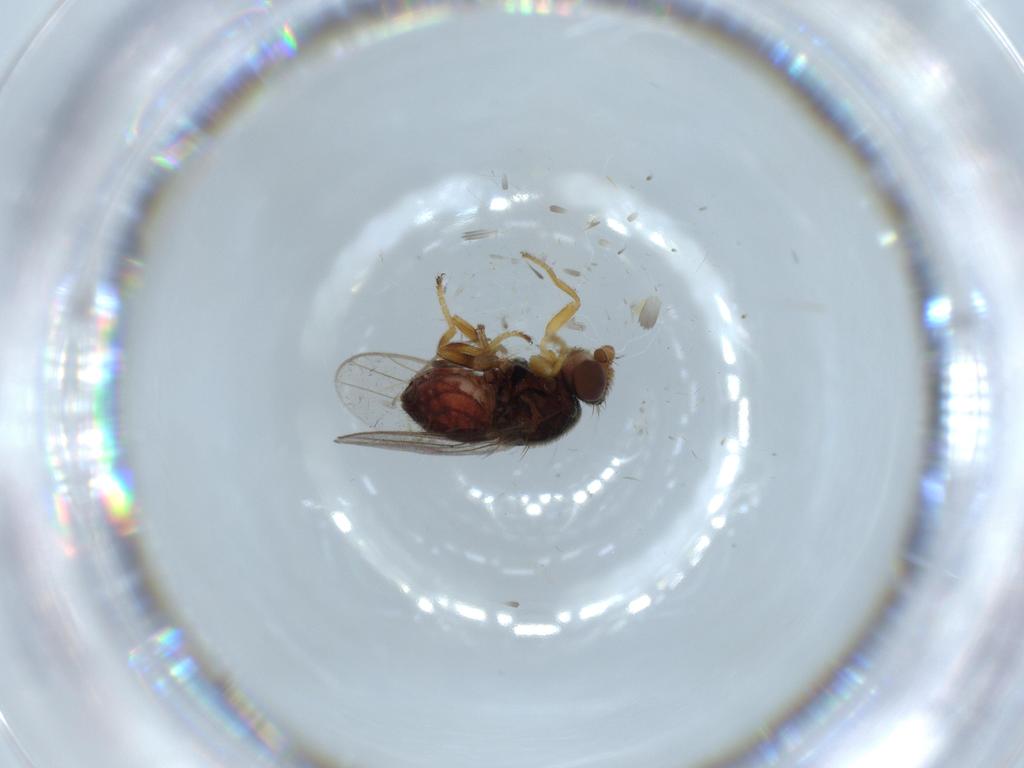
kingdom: Animalia
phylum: Arthropoda
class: Insecta
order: Diptera
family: Chloropidae
